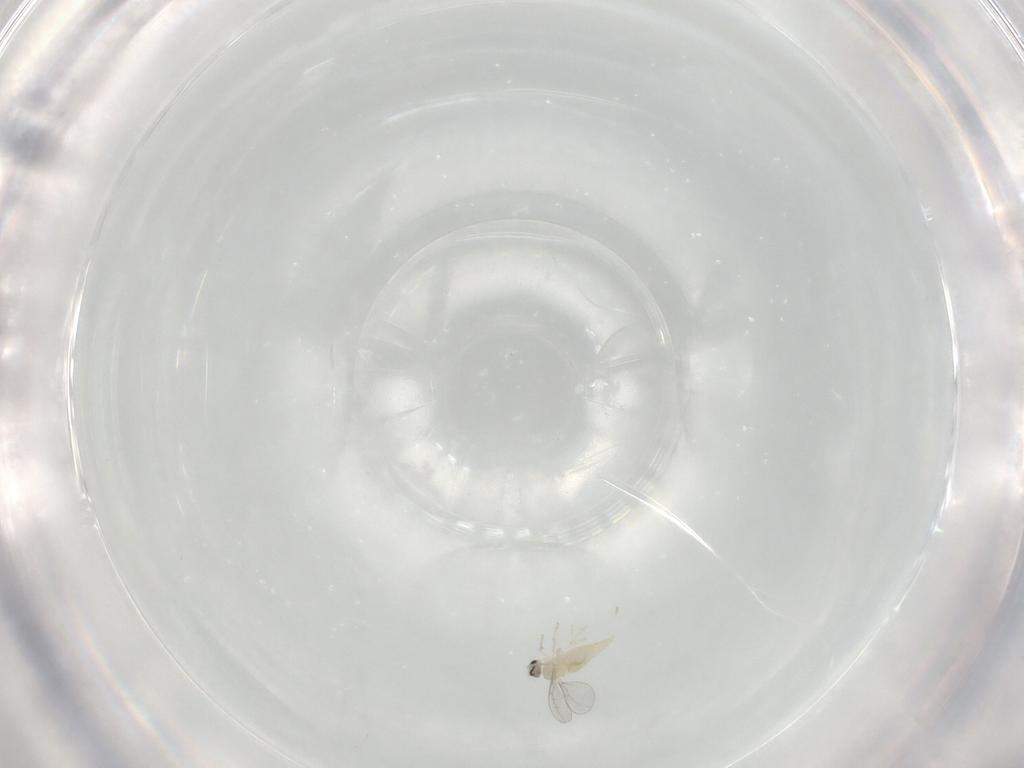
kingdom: Animalia
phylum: Arthropoda
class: Insecta
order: Diptera
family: Cecidomyiidae
